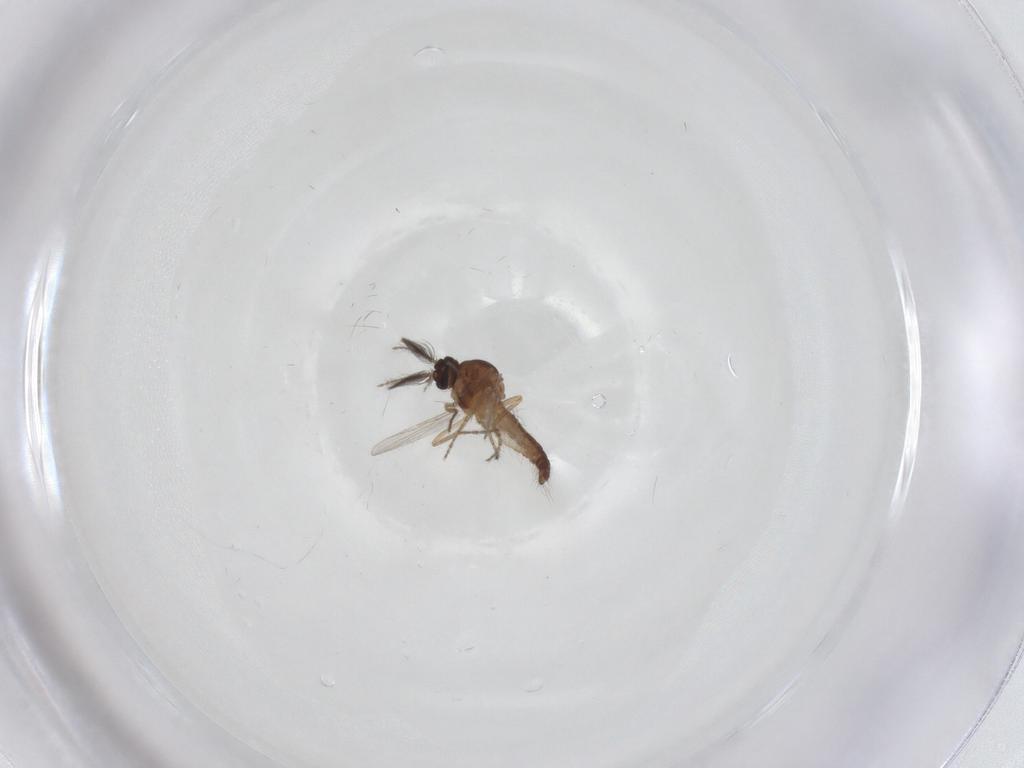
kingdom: Animalia
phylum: Arthropoda
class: Insecta
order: Diptera
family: Ceratopogonidae
